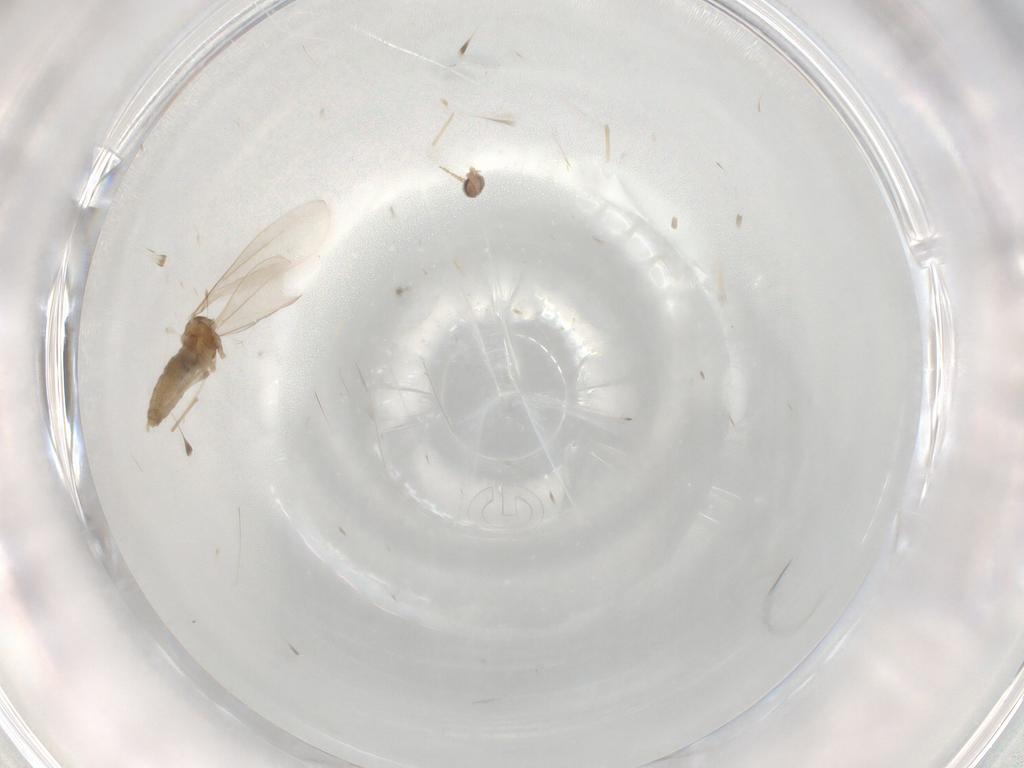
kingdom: Animalia
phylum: Arthropoda
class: Insecta
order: Diptera
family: Cecidomyiidae
